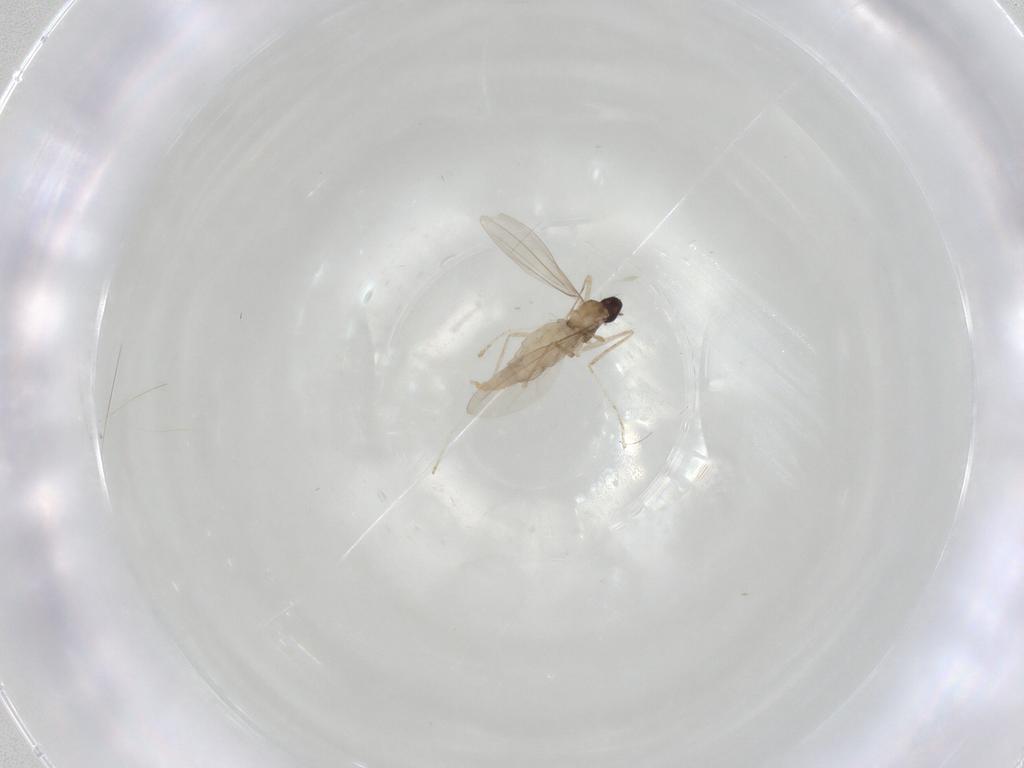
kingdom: Animalia
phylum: Arthropoda
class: Insecta
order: Diptera
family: Cecidomyiidae
